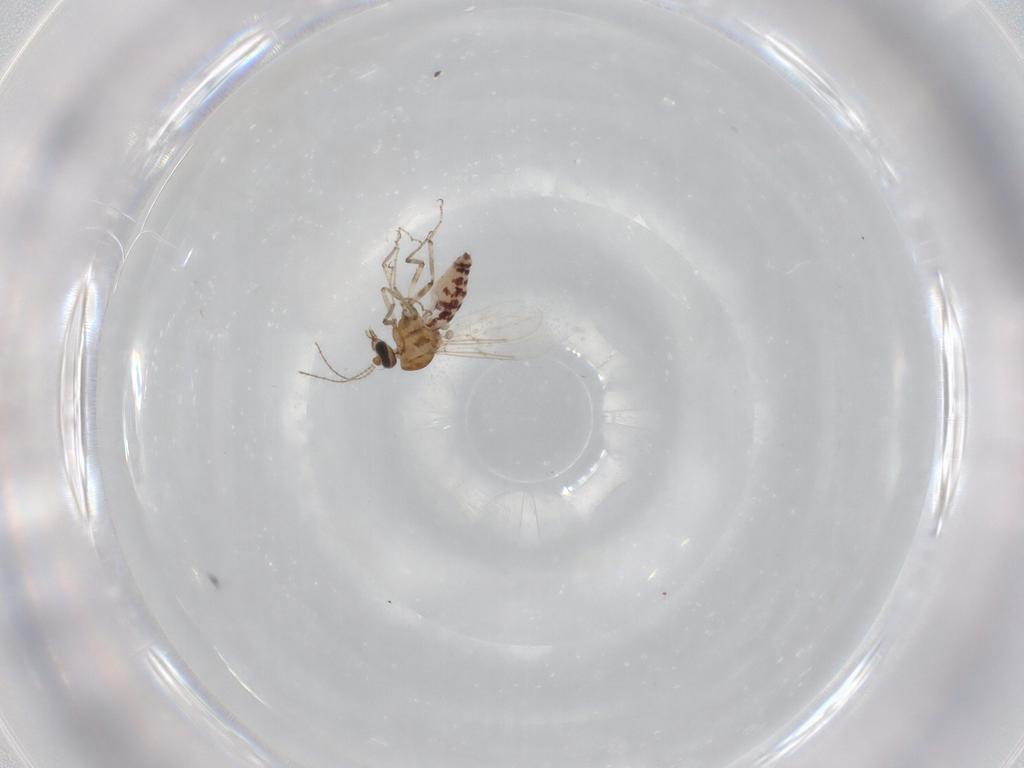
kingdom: Animalia
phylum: Arthropoda
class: Insecta
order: Diptera
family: Ceratopogonidae
